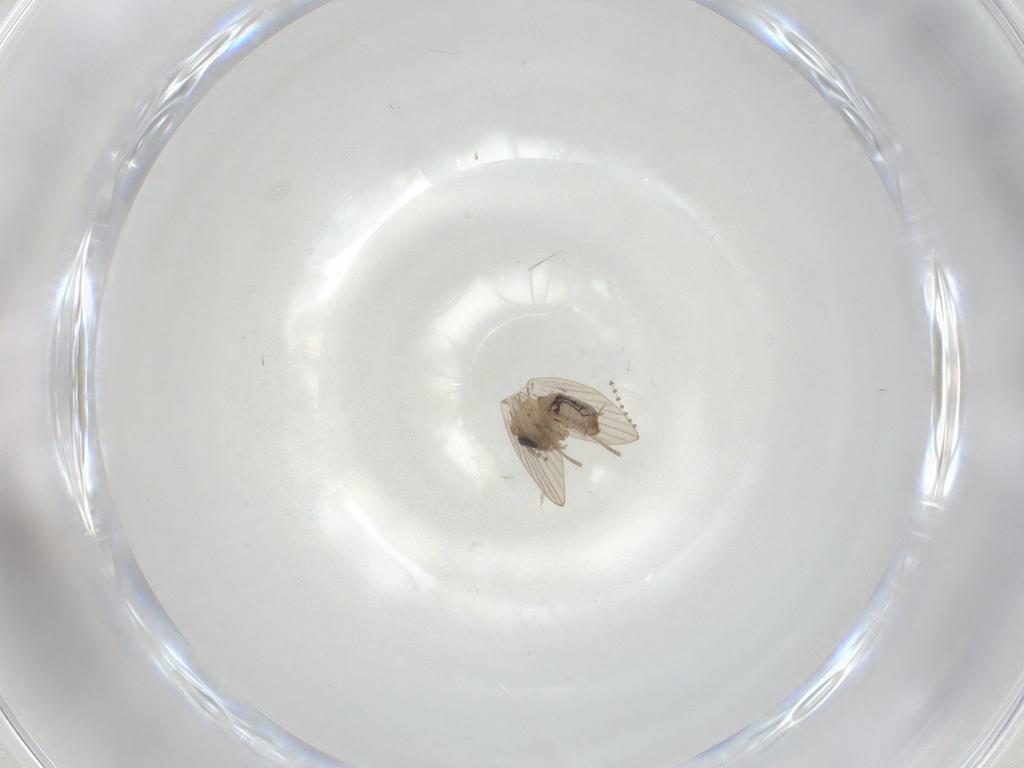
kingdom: Animalia
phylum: Arthropoda
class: Insecta
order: Diptera
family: Psychodidae
